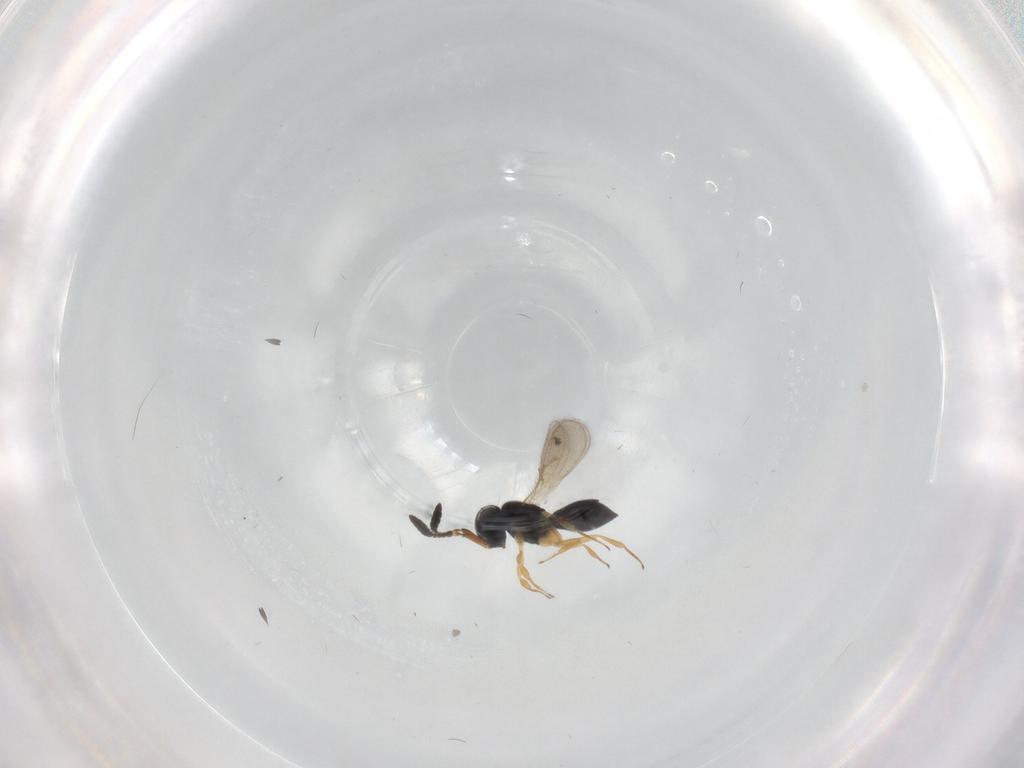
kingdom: Animalia
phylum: Arthropoda
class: Insecta
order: Hymenoptera
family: Scelionidae
